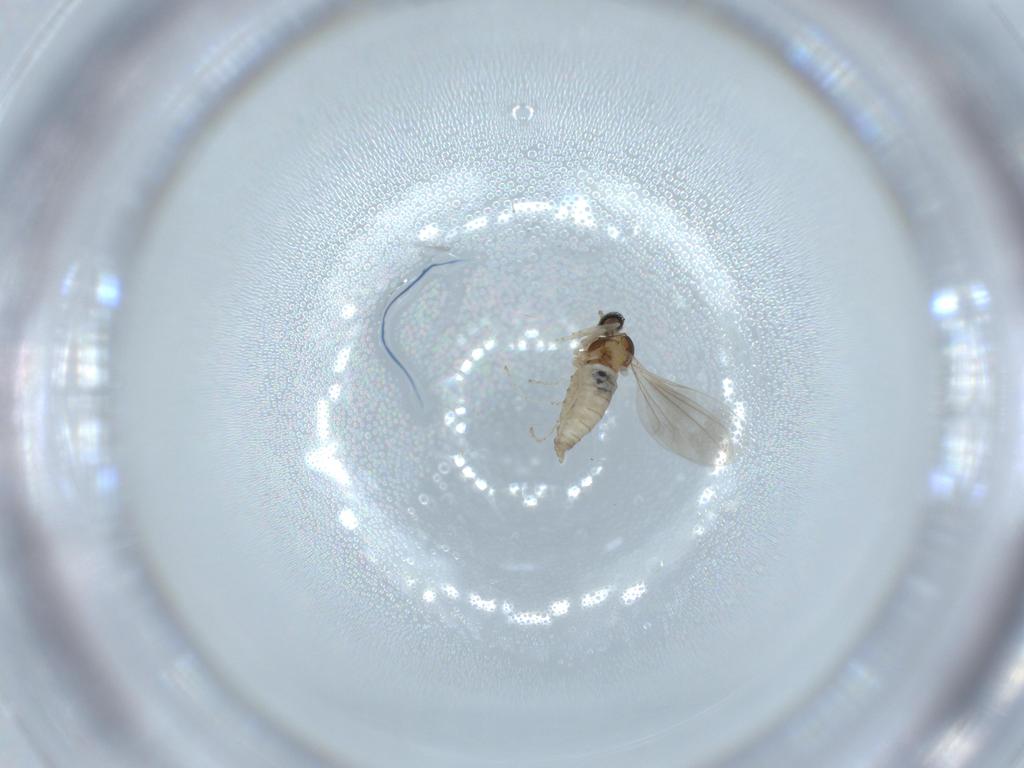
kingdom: Animalia
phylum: Arthropoda
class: Insecta
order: Diptera
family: Cecidomyiidae
